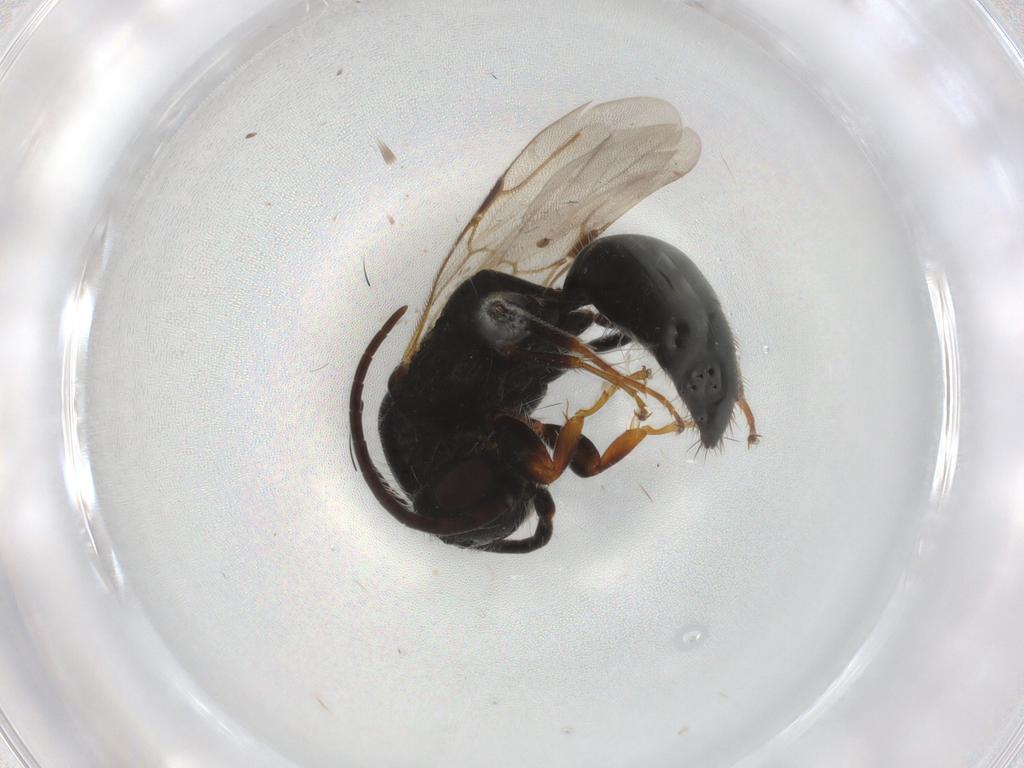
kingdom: Animalia
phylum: Arthropoda
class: Insecta
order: Hymenoptera
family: Bethylidae
